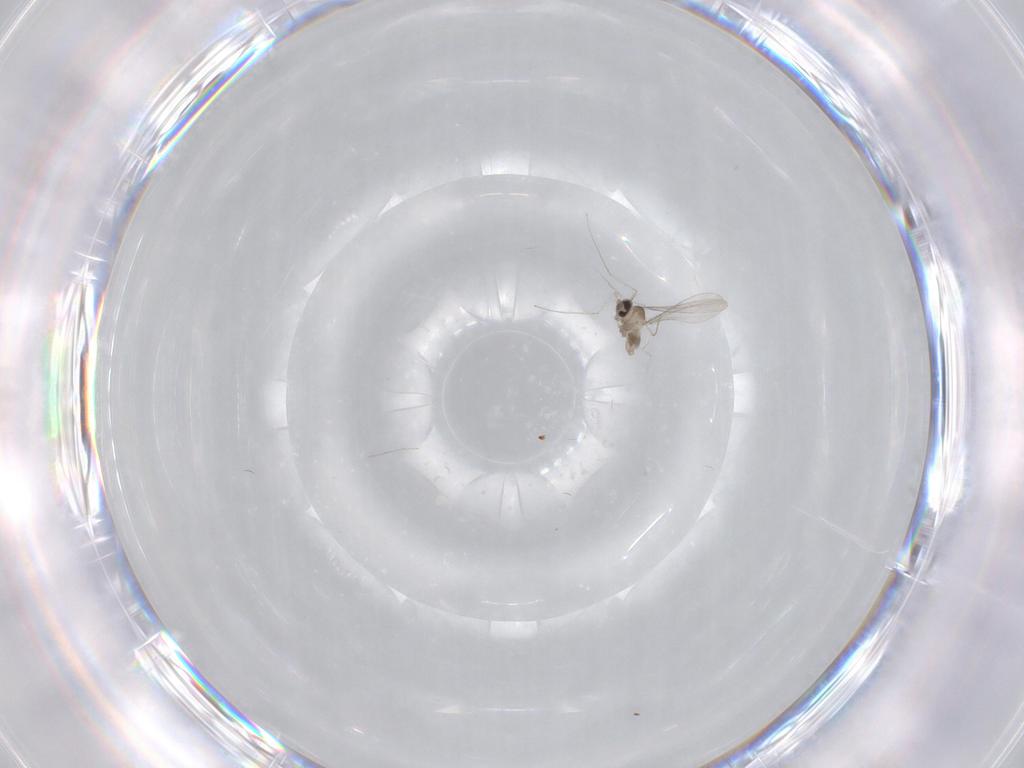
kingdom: Animalia
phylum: Arthropoda
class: Insecta
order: Diptera
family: Cecidomyiidae
